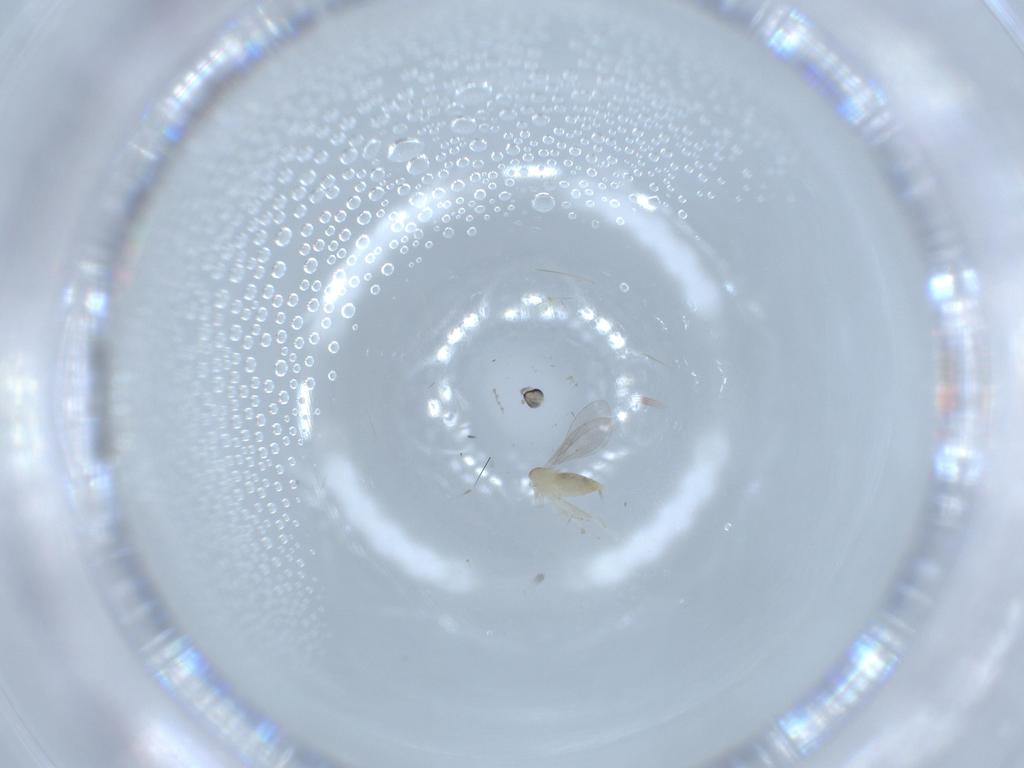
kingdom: Animalia
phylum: Arthropoda
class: Insecta
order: Diptera
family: Cecidomyiidae
